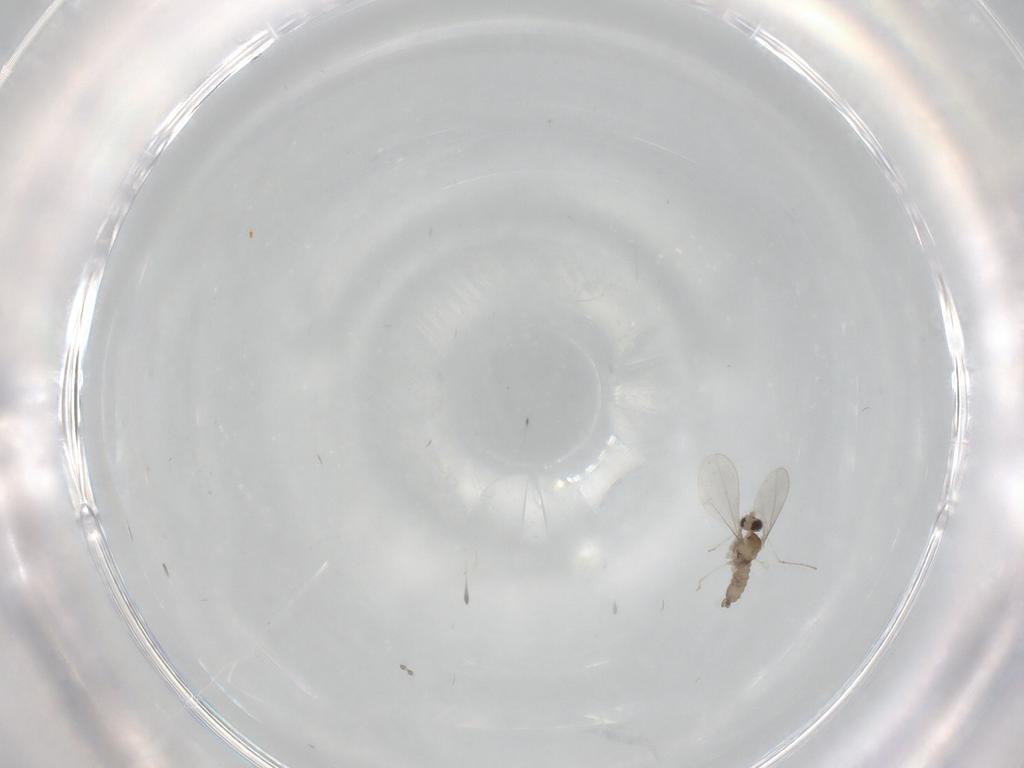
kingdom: Animalia
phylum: Arthropoda
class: Insecta
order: Diptera
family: Cecidomyiidae
